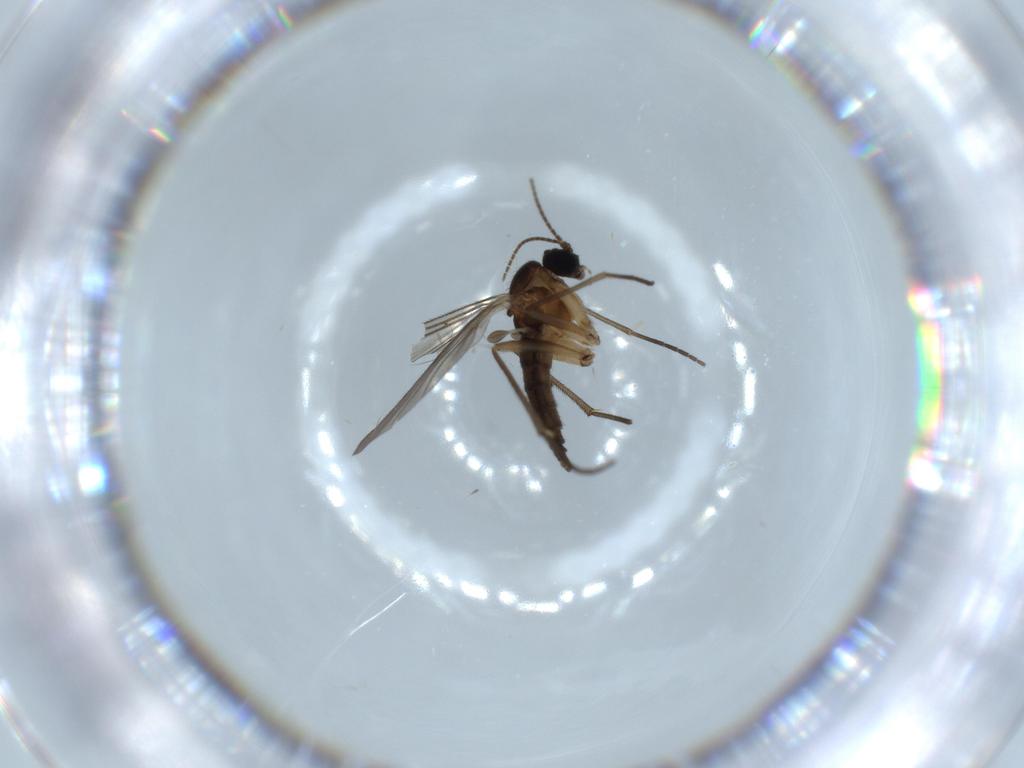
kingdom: Animalia
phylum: Arthropoda
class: Insecta
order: Diptera
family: Sciaridae
